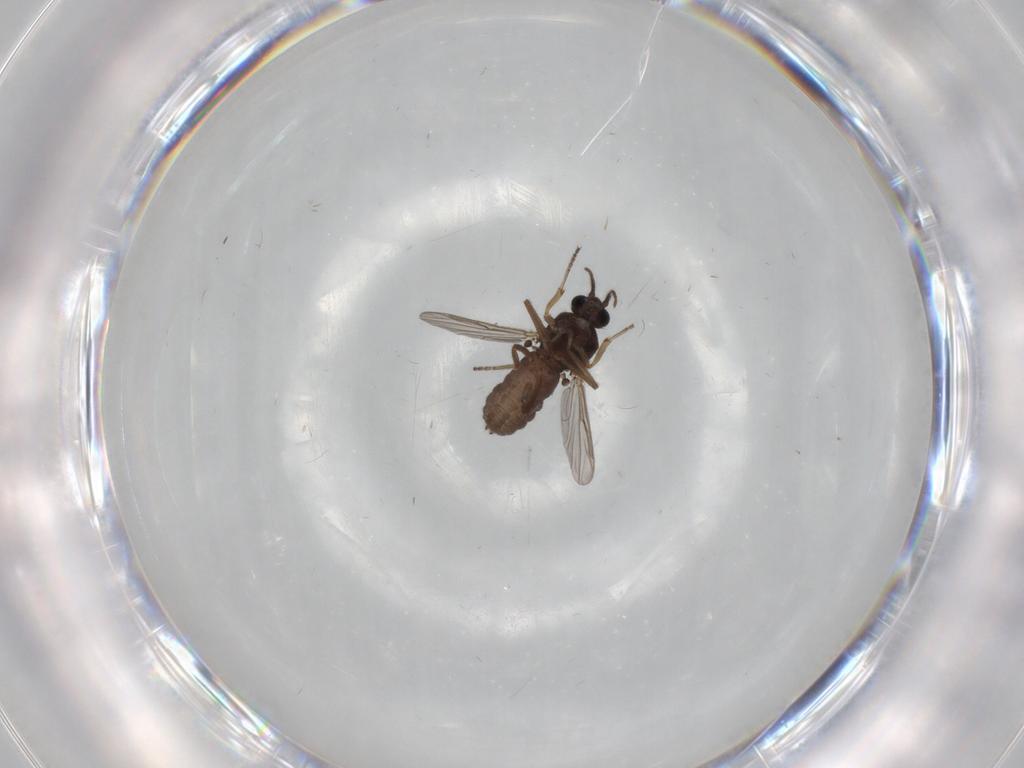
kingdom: Animalia
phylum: Arthropoda
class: Insecta
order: Diptera
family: Ceratopogonidae
